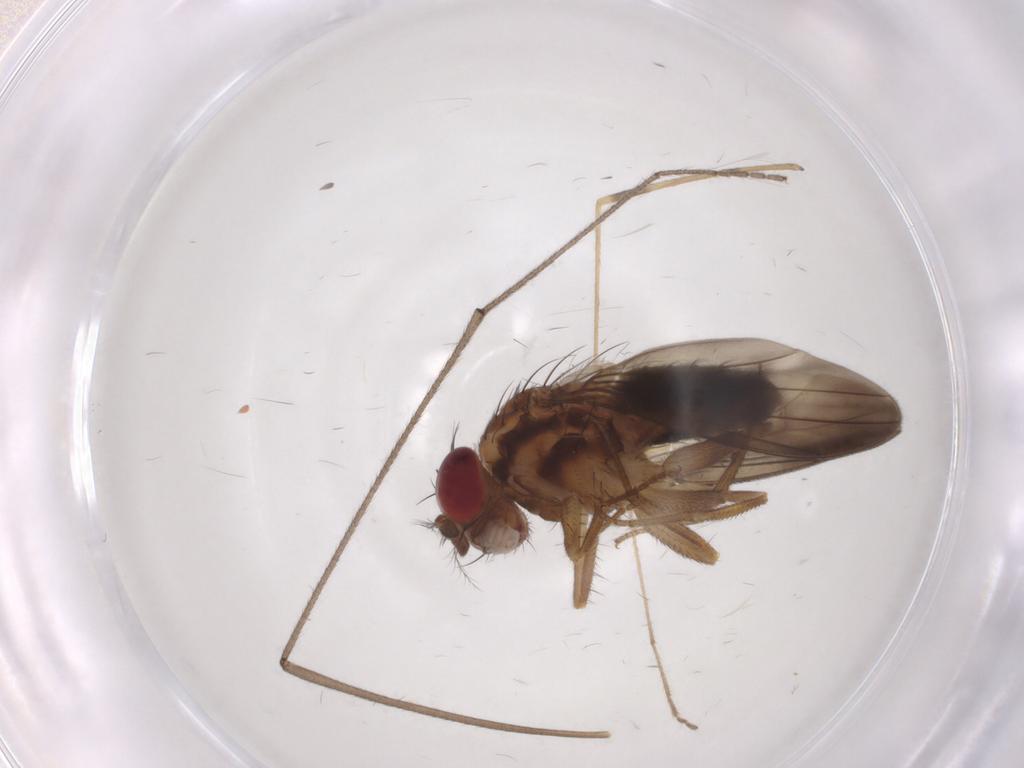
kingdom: Animalia
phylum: Arthropoda
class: Insecta
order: Diptera
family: Drosophilidae
